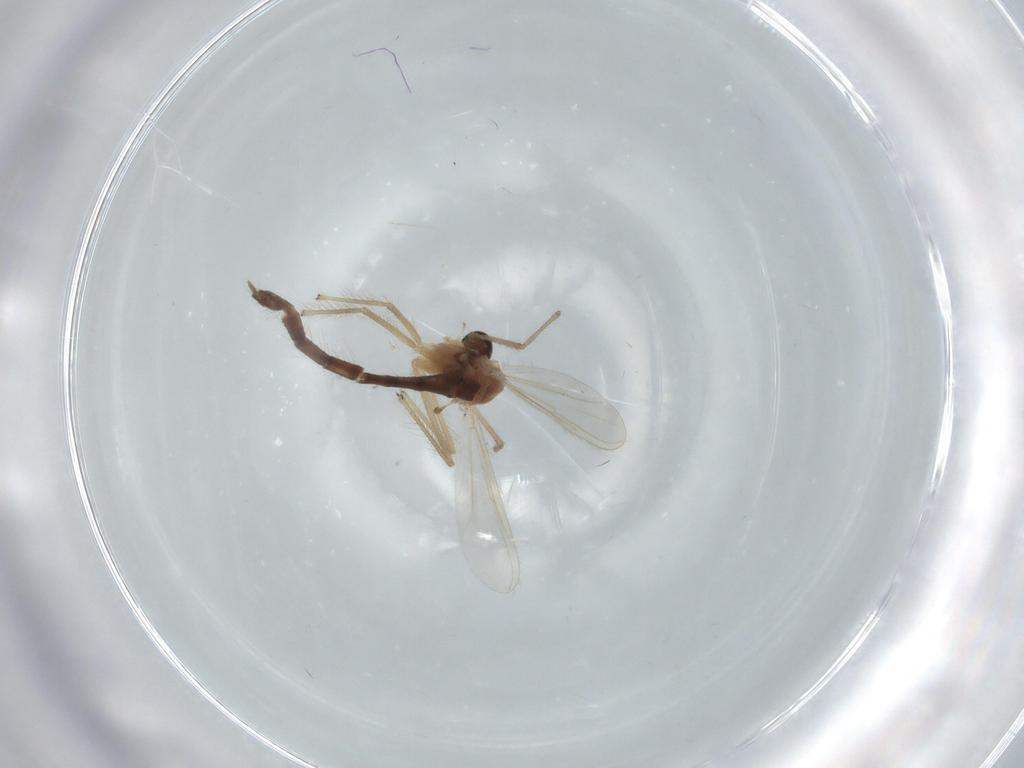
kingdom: Animalia
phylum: Arthropoda
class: Insecta
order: Diptera
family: Chironomidae
